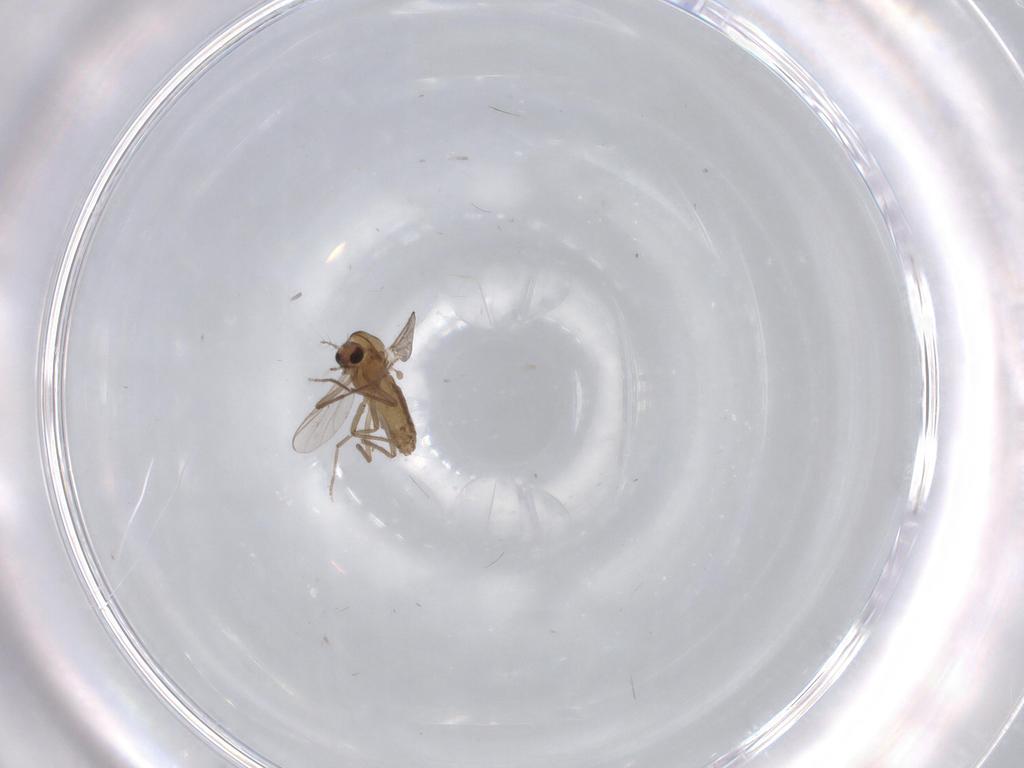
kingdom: Animalia
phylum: Arthropoda
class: Insecta
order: Diptera
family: Chironomidae
